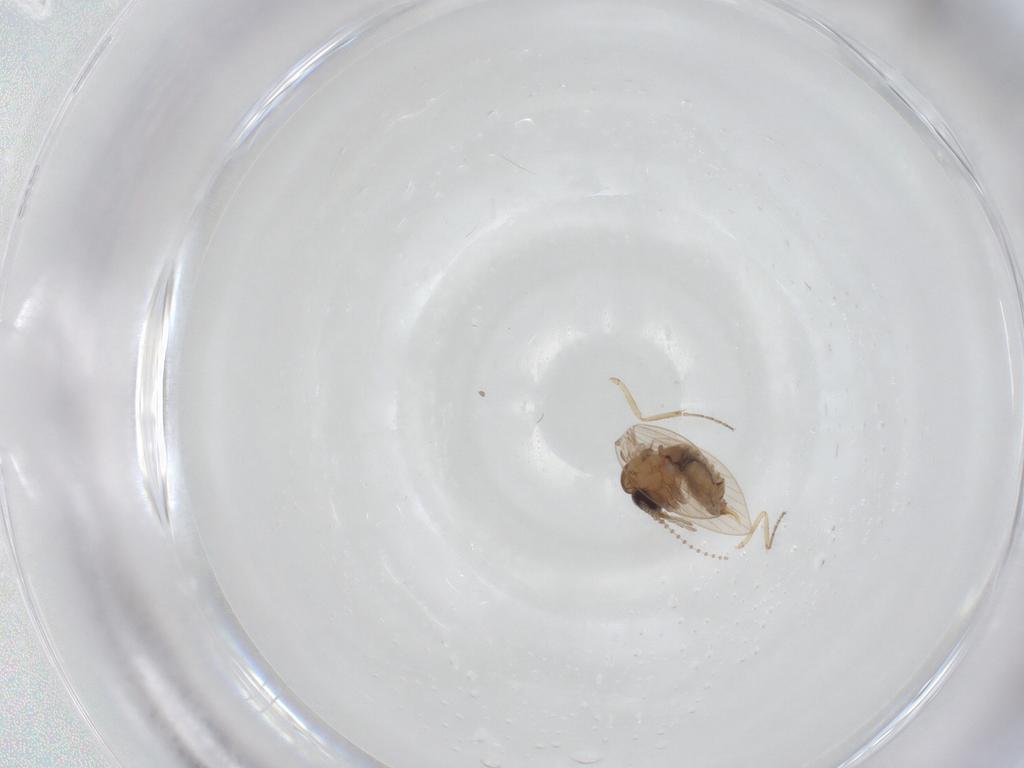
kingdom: Animalia
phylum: Arthropoda
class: Insecta
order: Diptera
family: Psychodidae
